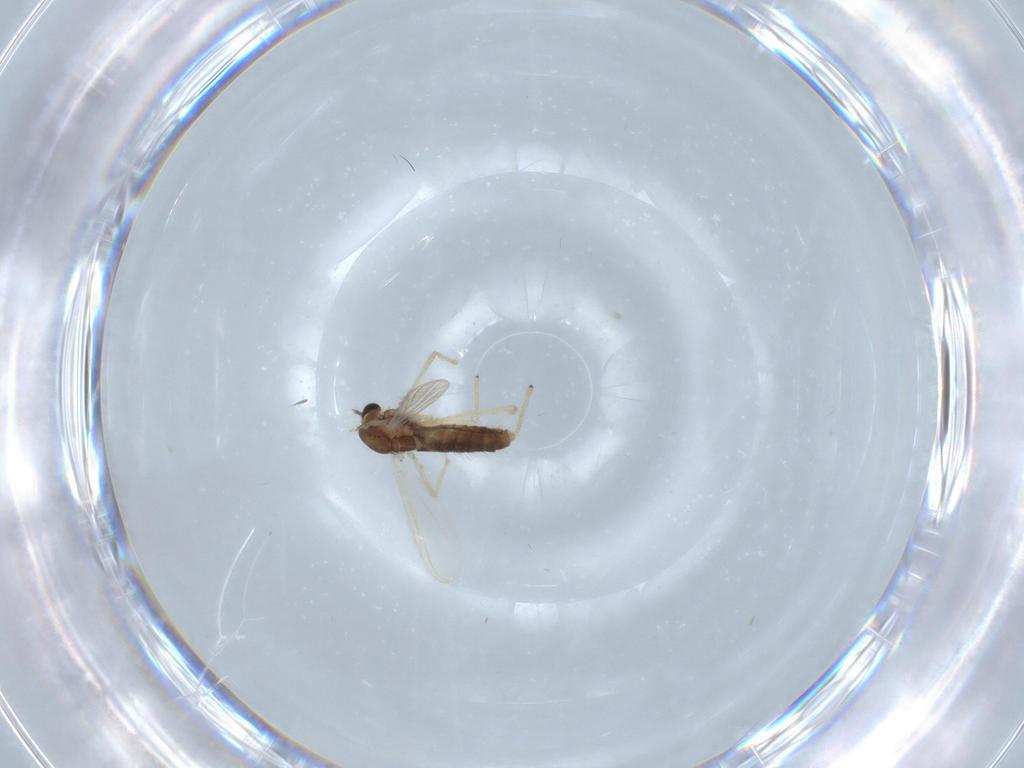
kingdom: Animalia
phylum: Arthropoda
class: Insecta
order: Diptera
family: Chironomidae
